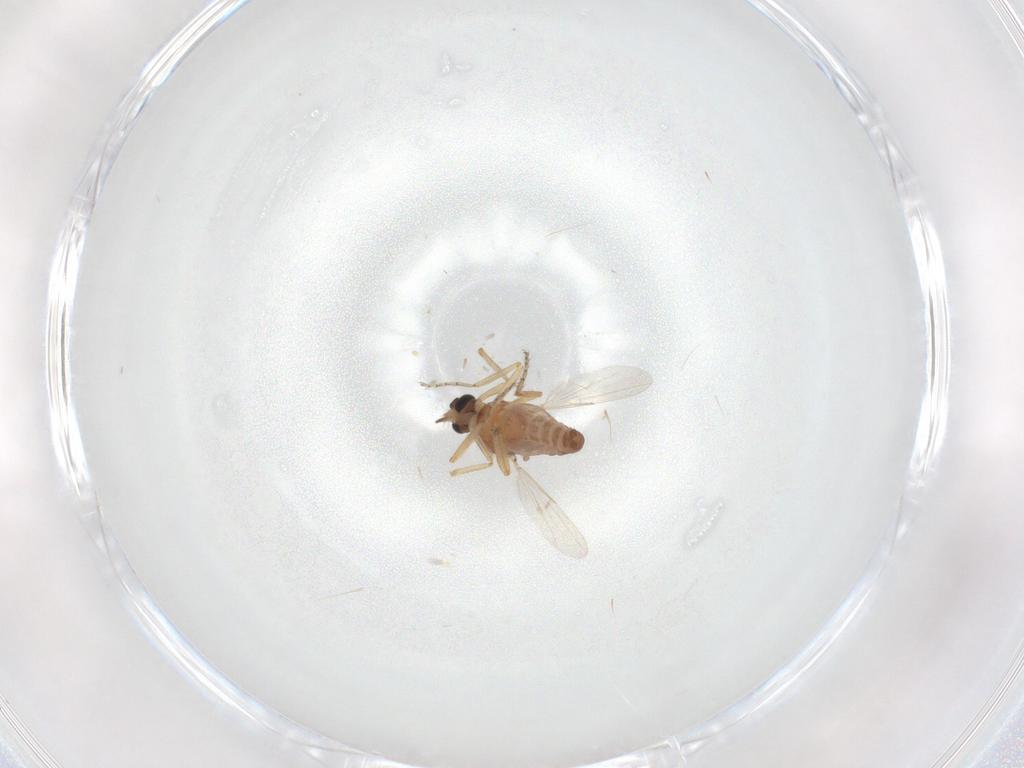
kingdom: Animalia
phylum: Arthropoda
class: Insecta
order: Diptera
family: Ceratopogonidae
